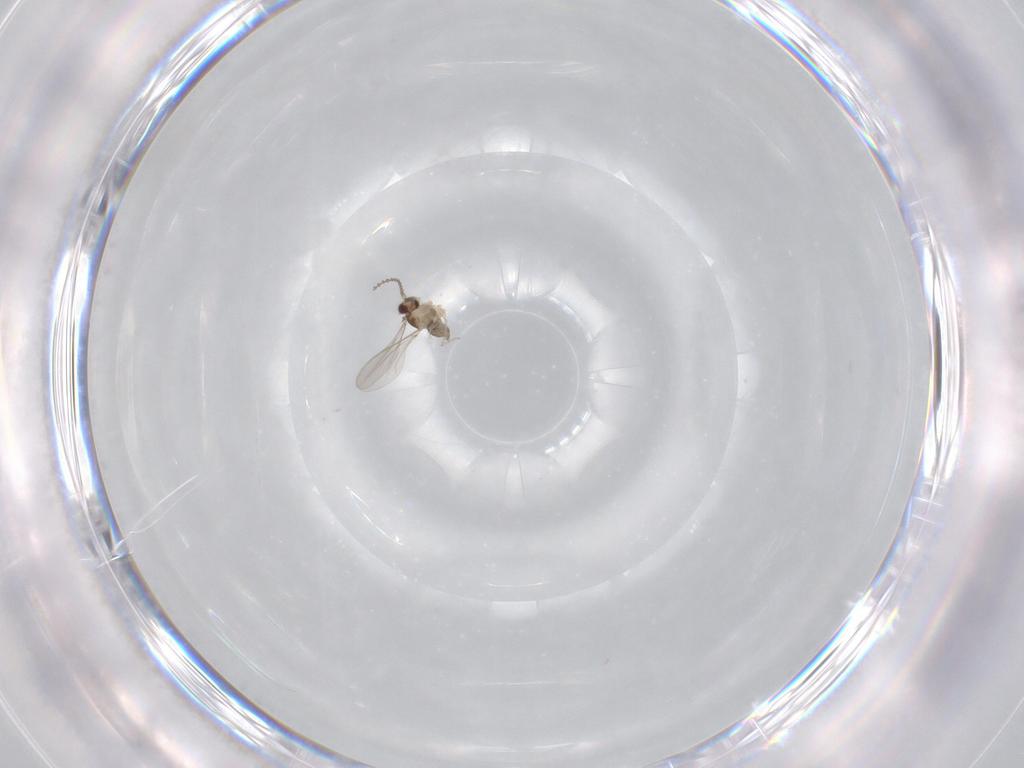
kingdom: Animalia
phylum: Arthropoda
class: Insecta
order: Diptera
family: Cecidomyiidae
